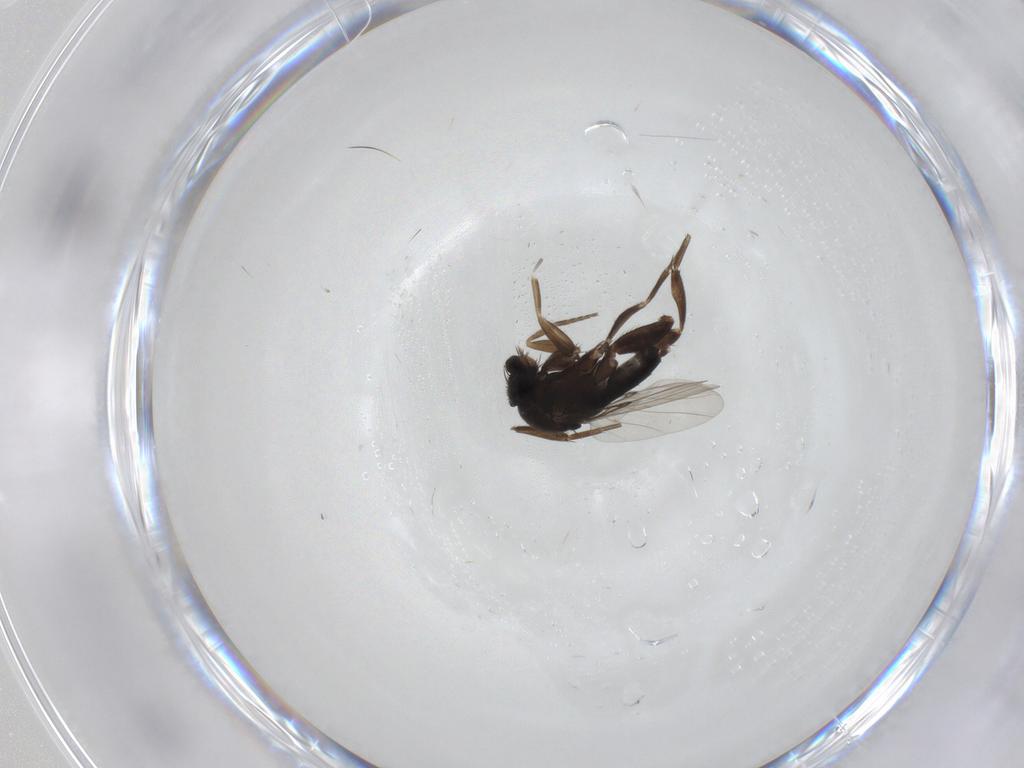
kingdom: Animalia
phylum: Arthropoda
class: Insecta
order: Diptera
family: Phoridae
